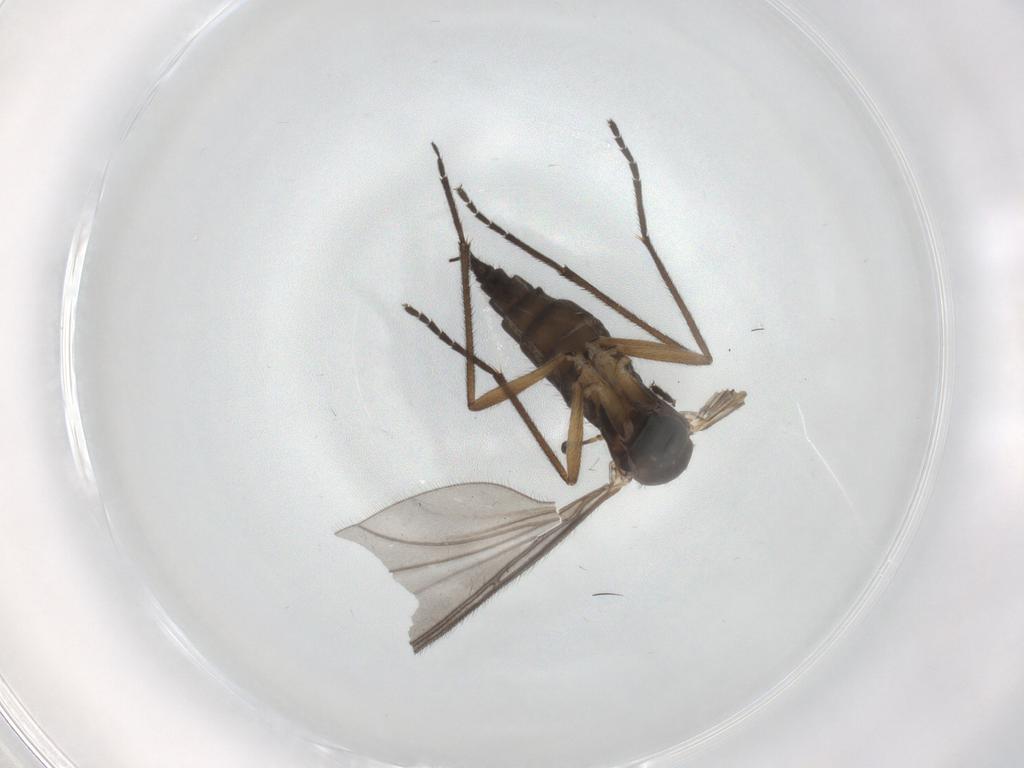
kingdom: Animalia
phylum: Arthropoda
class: Insecta
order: Diptera
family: Sciaridae
